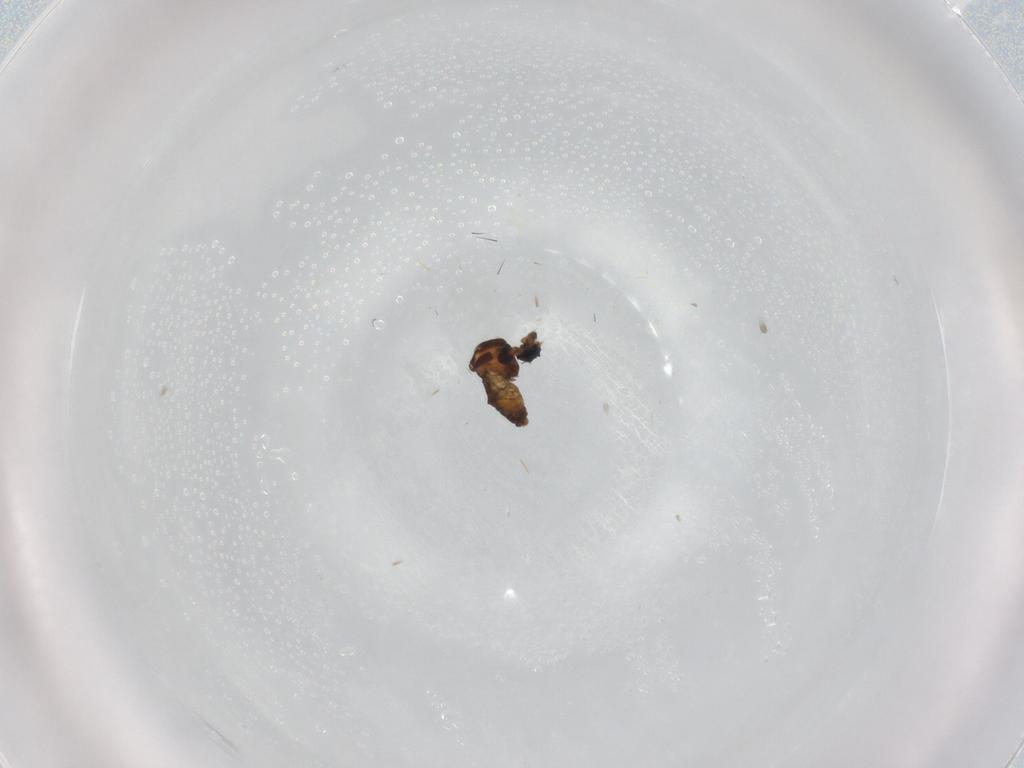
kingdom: Animalia
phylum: Arthropoda
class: Insecta
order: Diptera
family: Lonchaeidae
